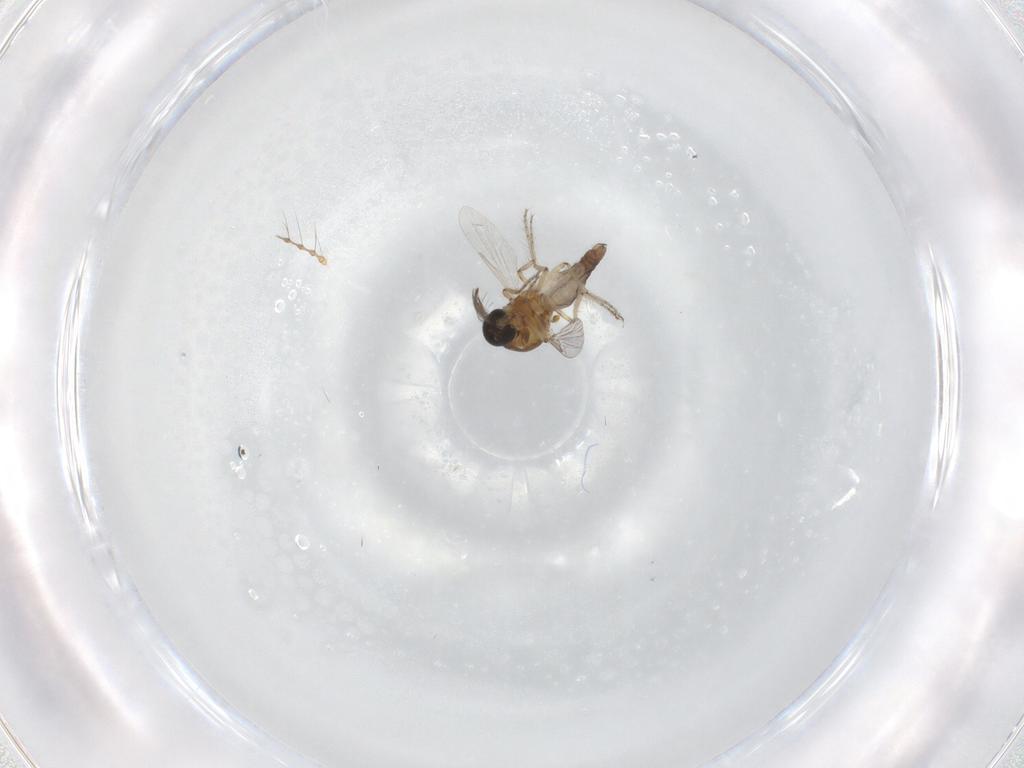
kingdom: Animalia
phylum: Arthropoda
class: Insecta
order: Diptera
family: Ceratopogonidae
